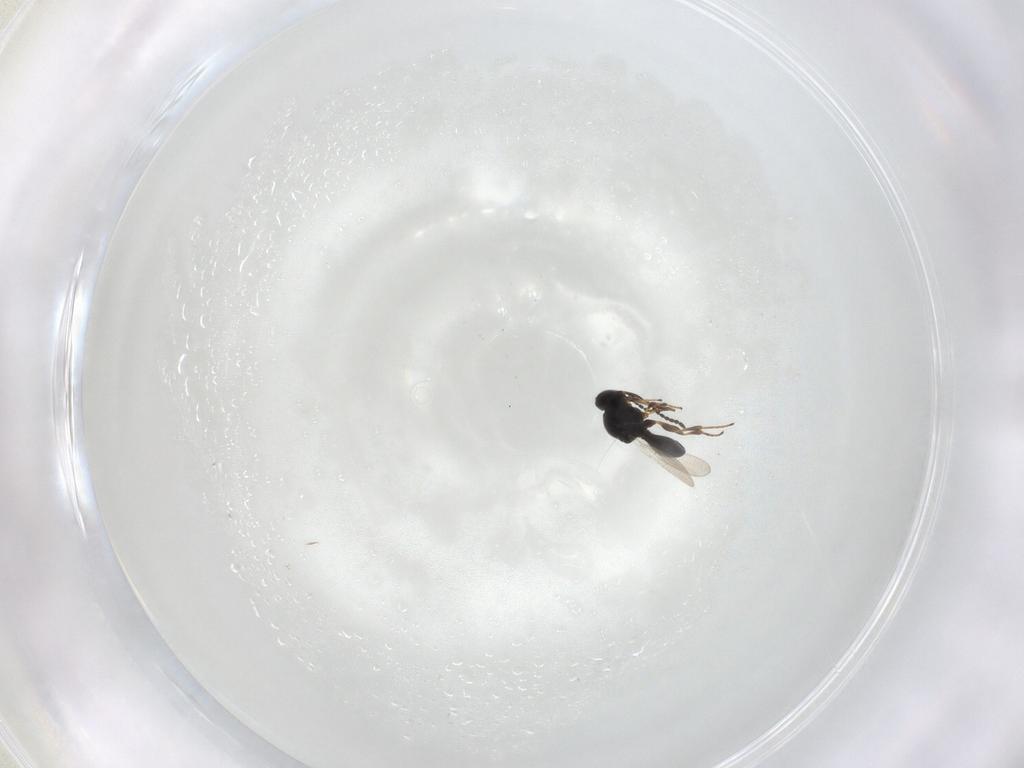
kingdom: Animalia
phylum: Arthropoda
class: Insecta
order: Hymenoptera
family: Platygastridae
